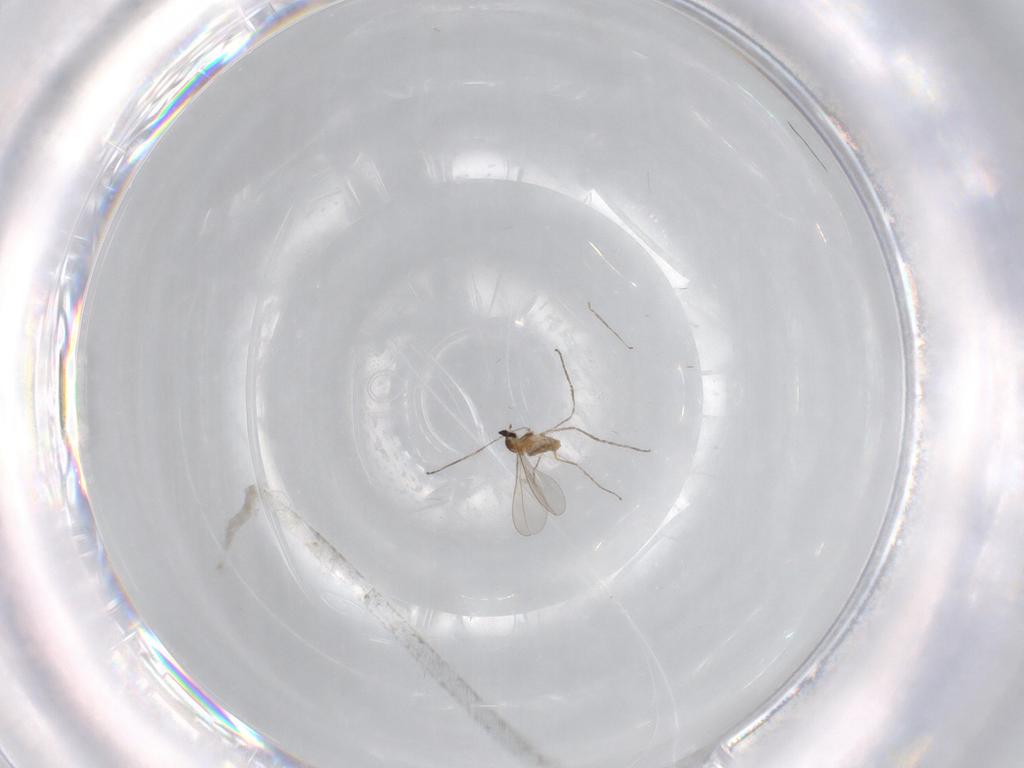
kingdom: Animalia
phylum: Arthropoda
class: Insecta
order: Diptera
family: Cecidomyiidae
